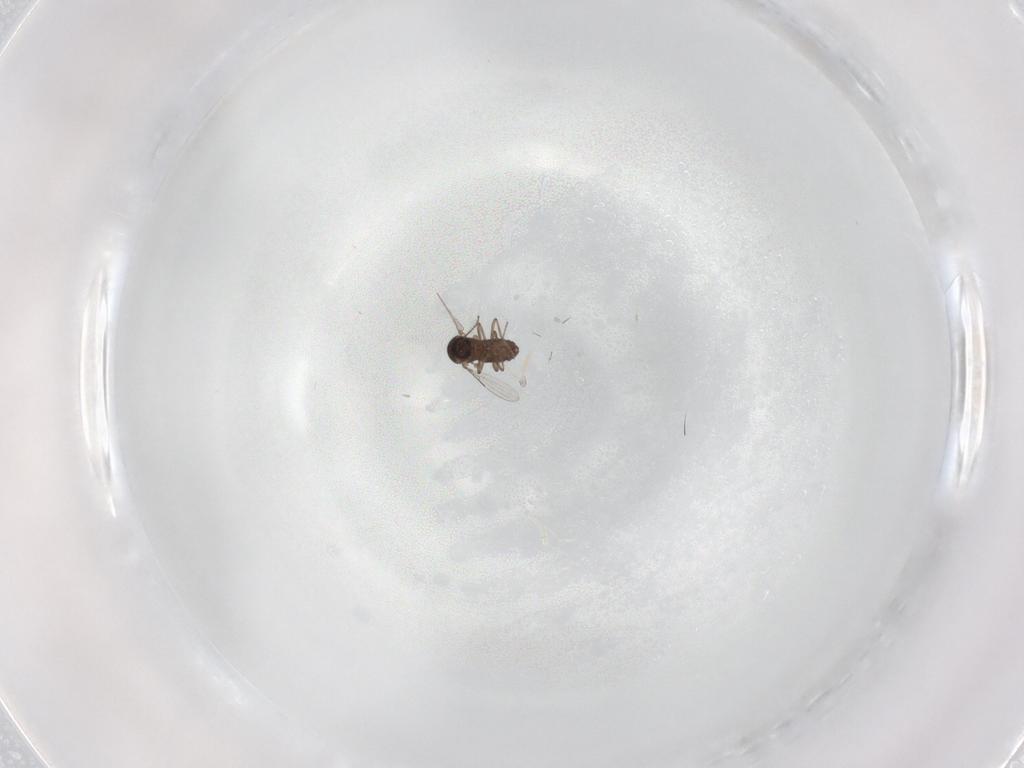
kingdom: Animalia
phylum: Arthropoda
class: Insecta
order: Diptera
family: Ceratopogonidae
